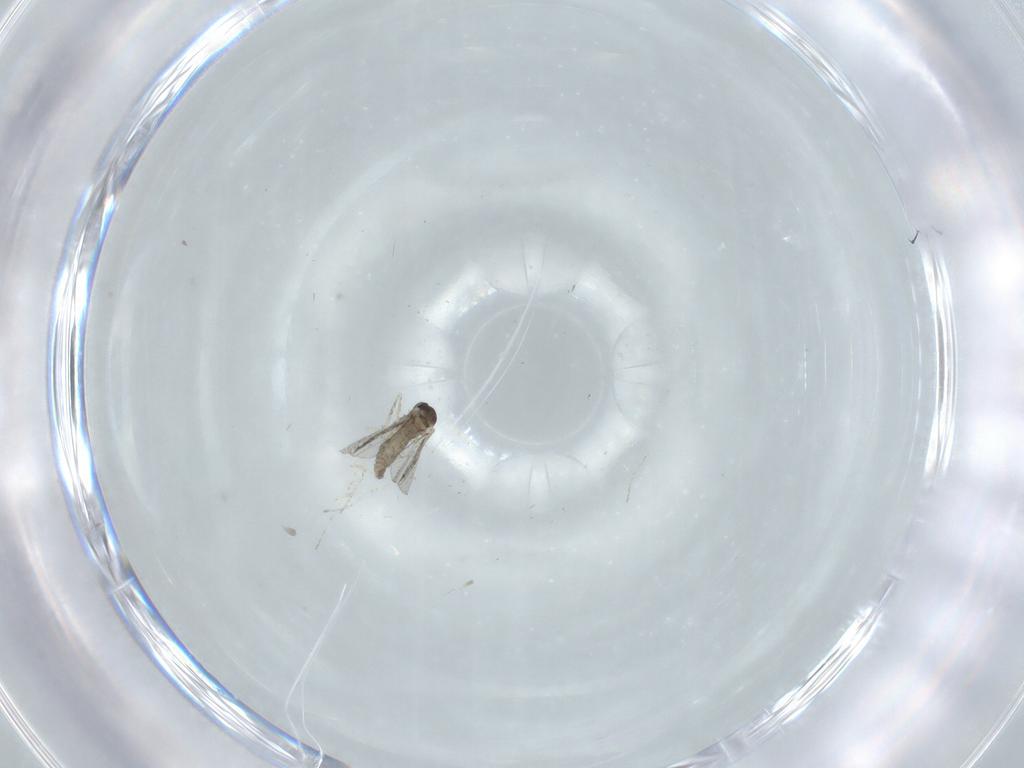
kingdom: Animalia
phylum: Arthropoda
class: Insecta
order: Diptera
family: Cecidomyiidae
